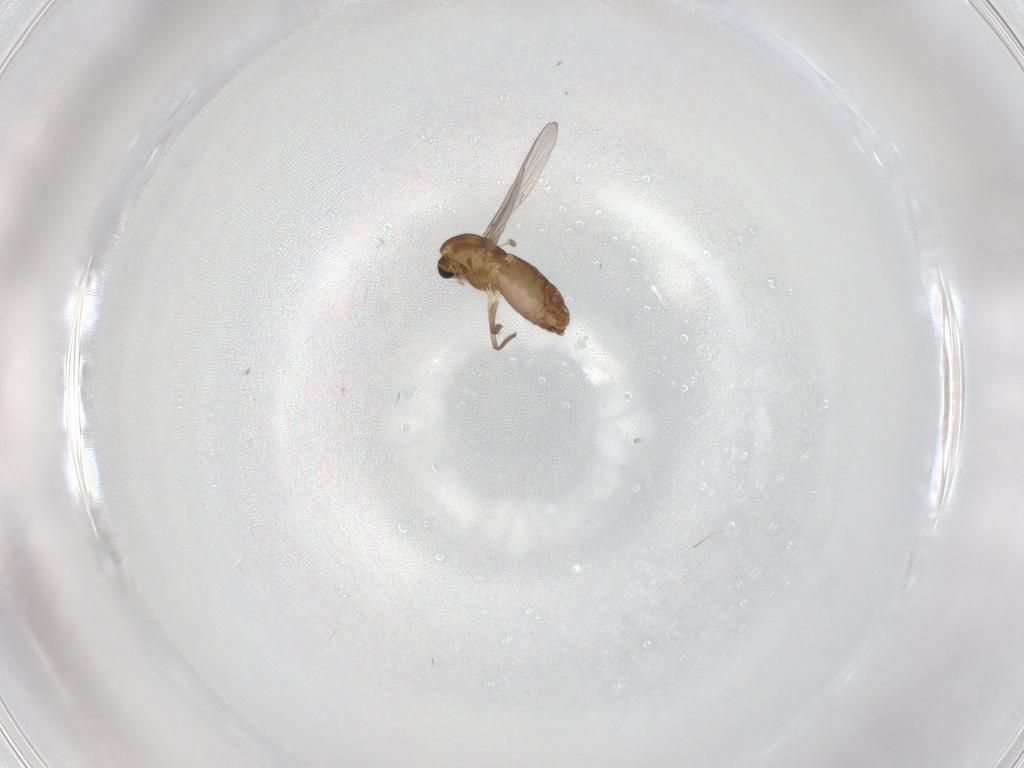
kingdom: Animalia
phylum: Arthropoda
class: Insecta
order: Diptera
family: Chironomidae
